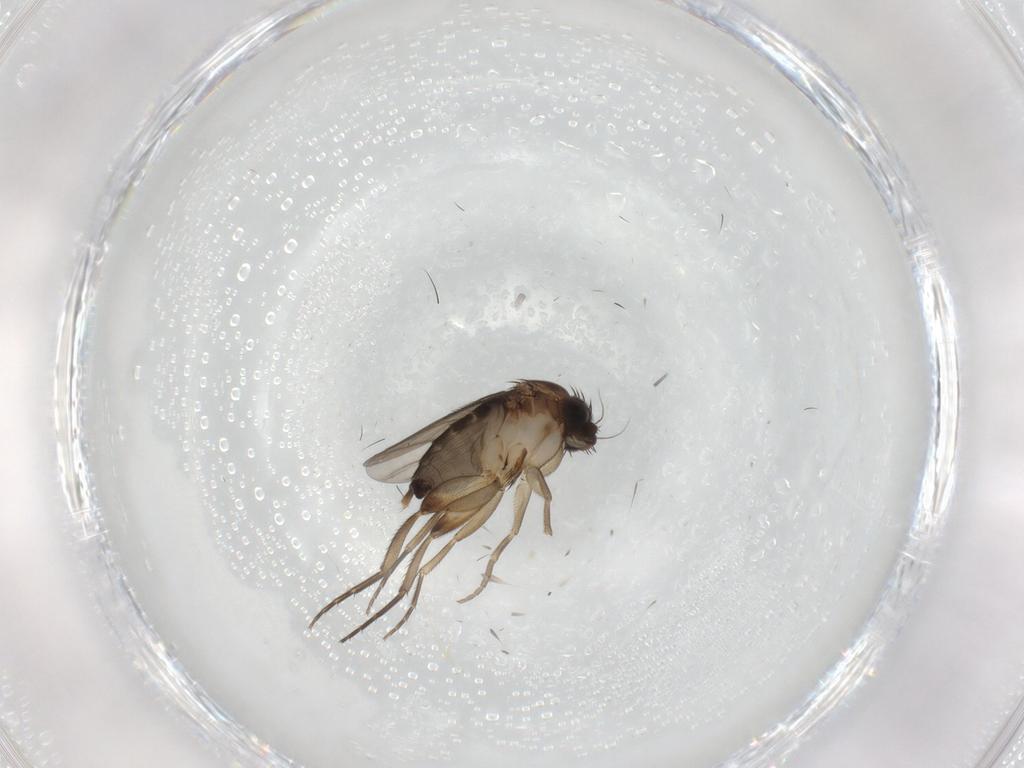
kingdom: Animalia
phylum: Arthropoda
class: Insecta
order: Diptera
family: Phoridae
